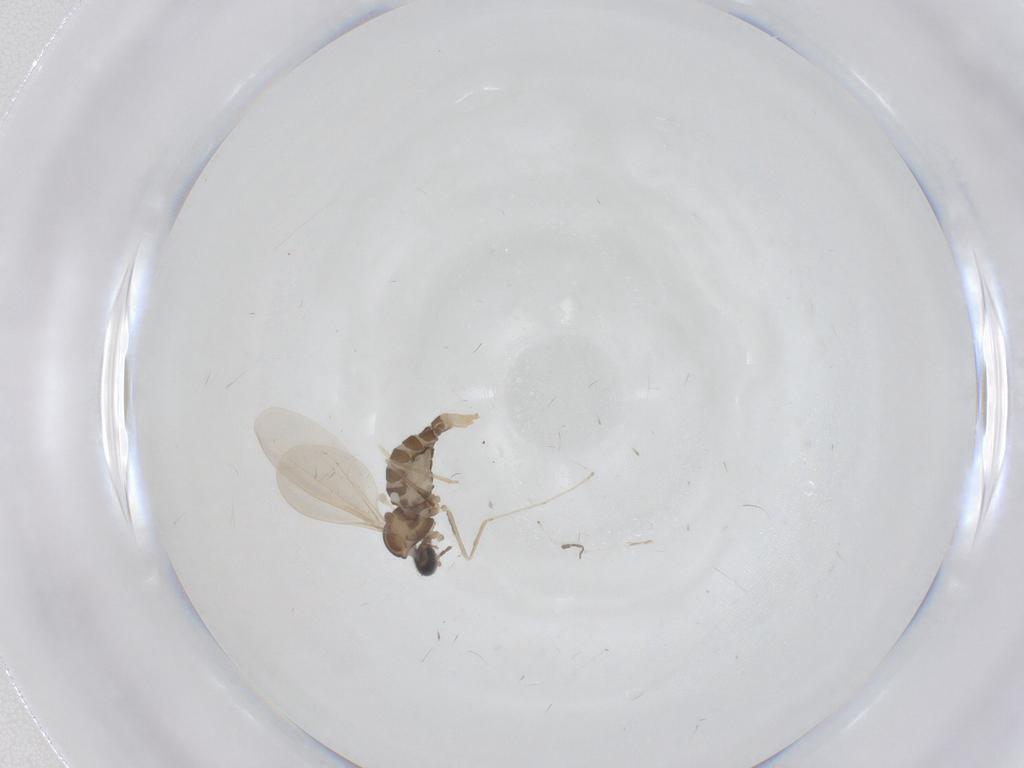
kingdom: Animalia
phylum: Arthropoda
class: Insecta
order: Diptera
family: Cecidomyiidae
